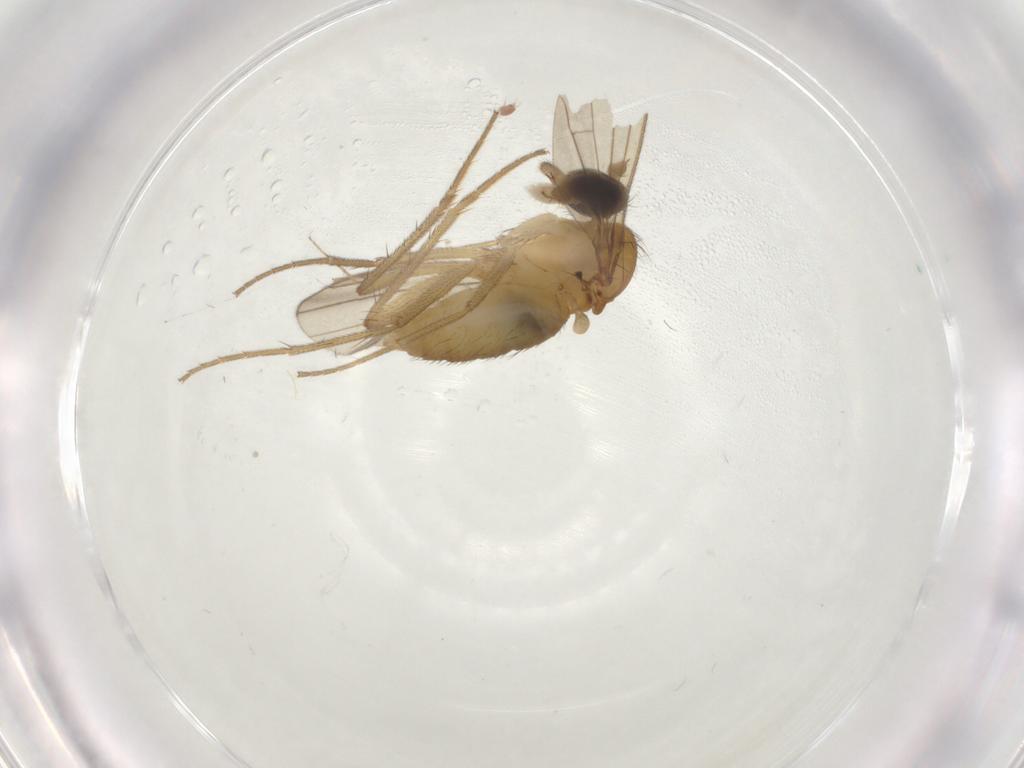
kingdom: Animalia
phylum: Arthropoda
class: Insecta
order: Diptera
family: Dolichopodidae
